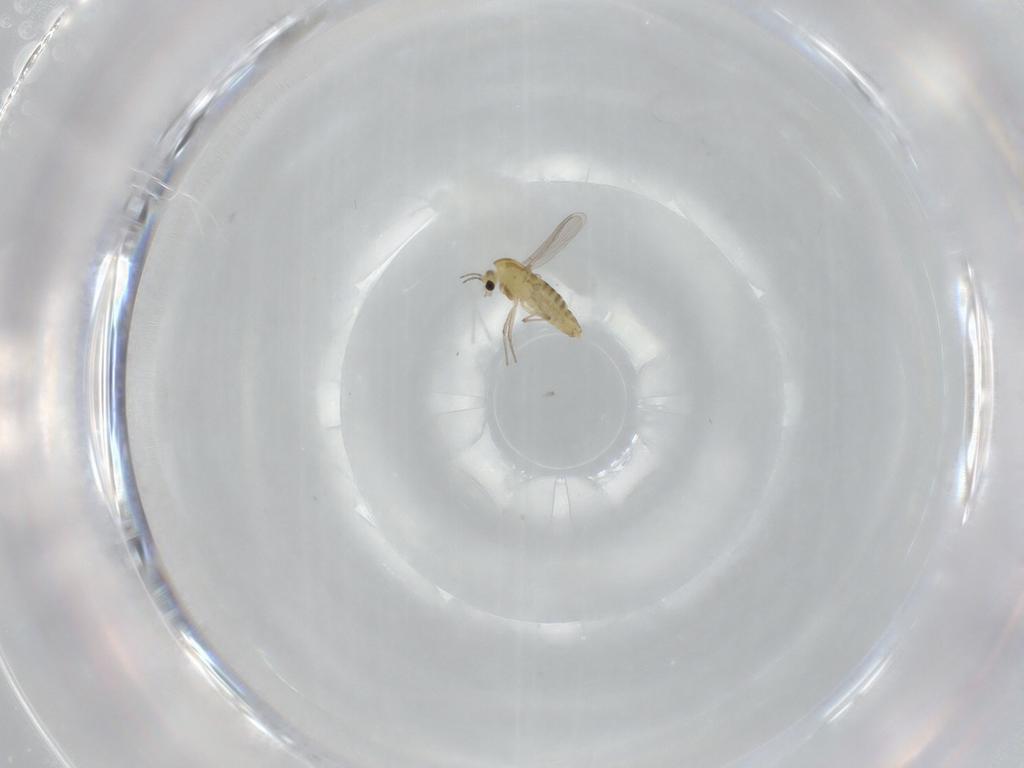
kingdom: Animalia
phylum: Arthropoda
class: Insecta
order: Diptera
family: Chironomidae
